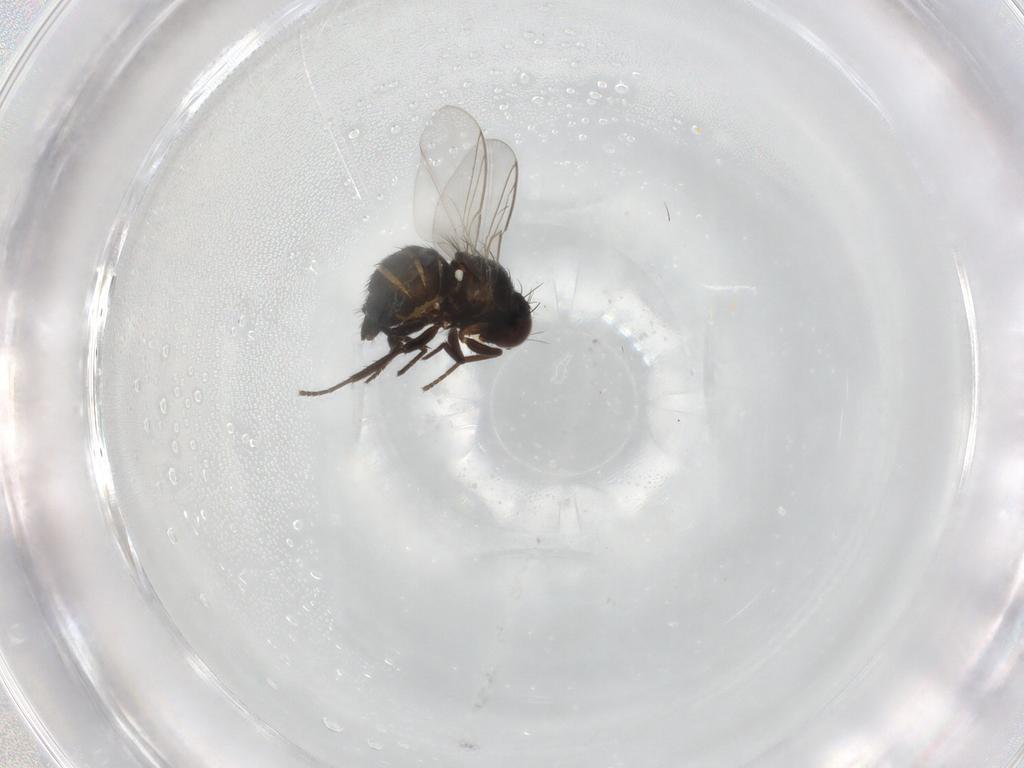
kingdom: Animalia
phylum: Arthropoda
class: Insecta
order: Diptera
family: Agromyzidae
